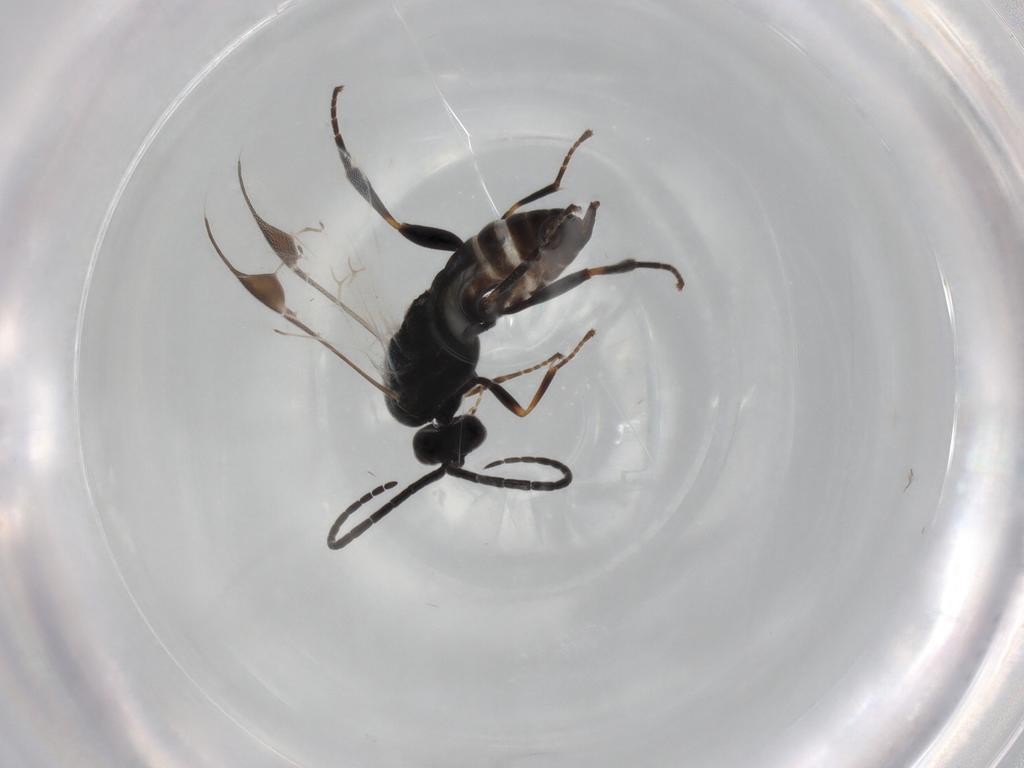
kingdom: Animalia
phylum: Arthropoda
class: Insecta
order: Hymenoptera
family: Braconidae
